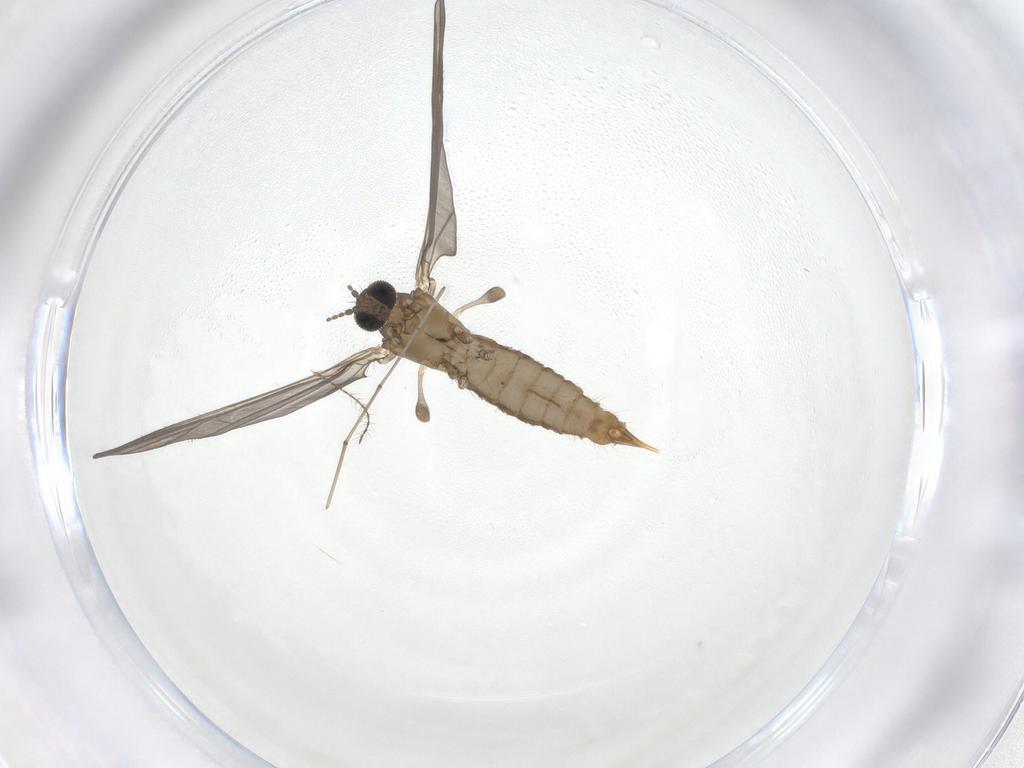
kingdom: Animalia
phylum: Arthropoda
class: Insecta
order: Diptera
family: Limoniidae
